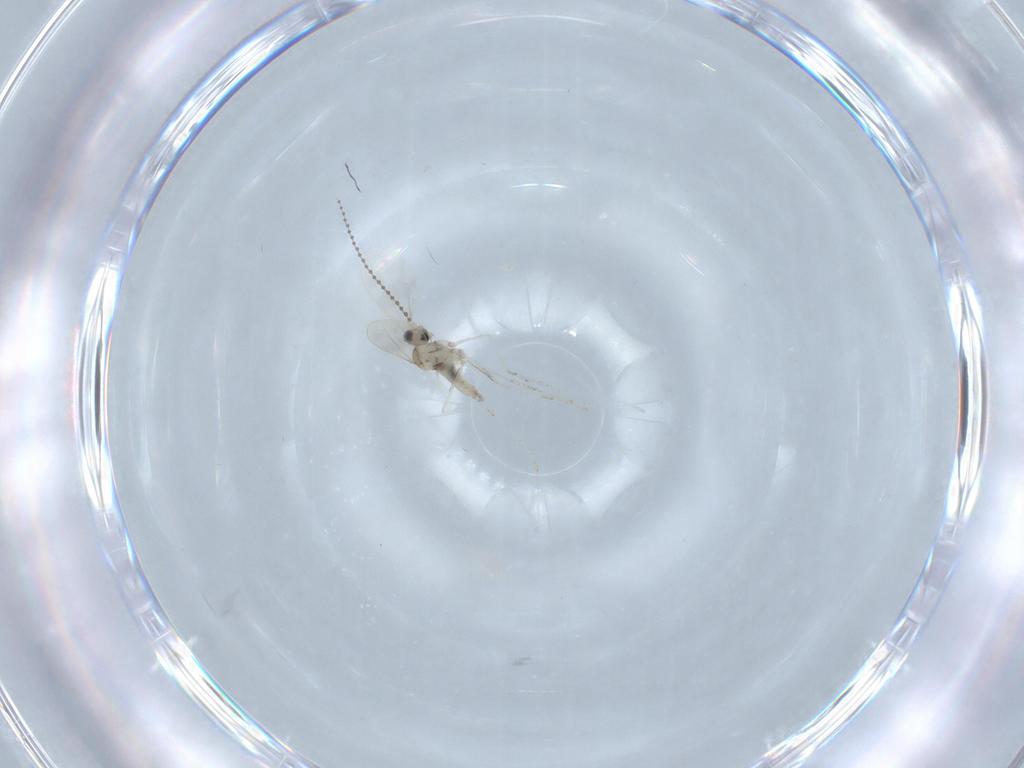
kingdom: Animalia
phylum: Arthropoda
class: Insecta
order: Diptera
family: Cecidomyiidae
